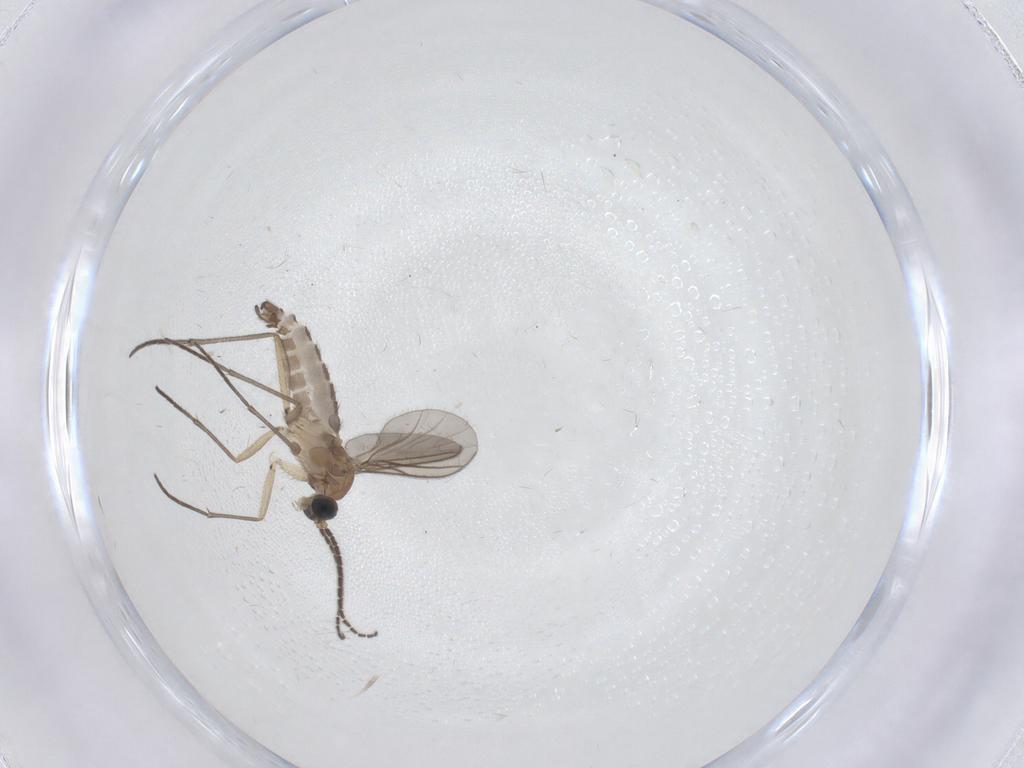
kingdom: Animalia
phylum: Arthropoda
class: Insecta
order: Diptera
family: Sciaridae
